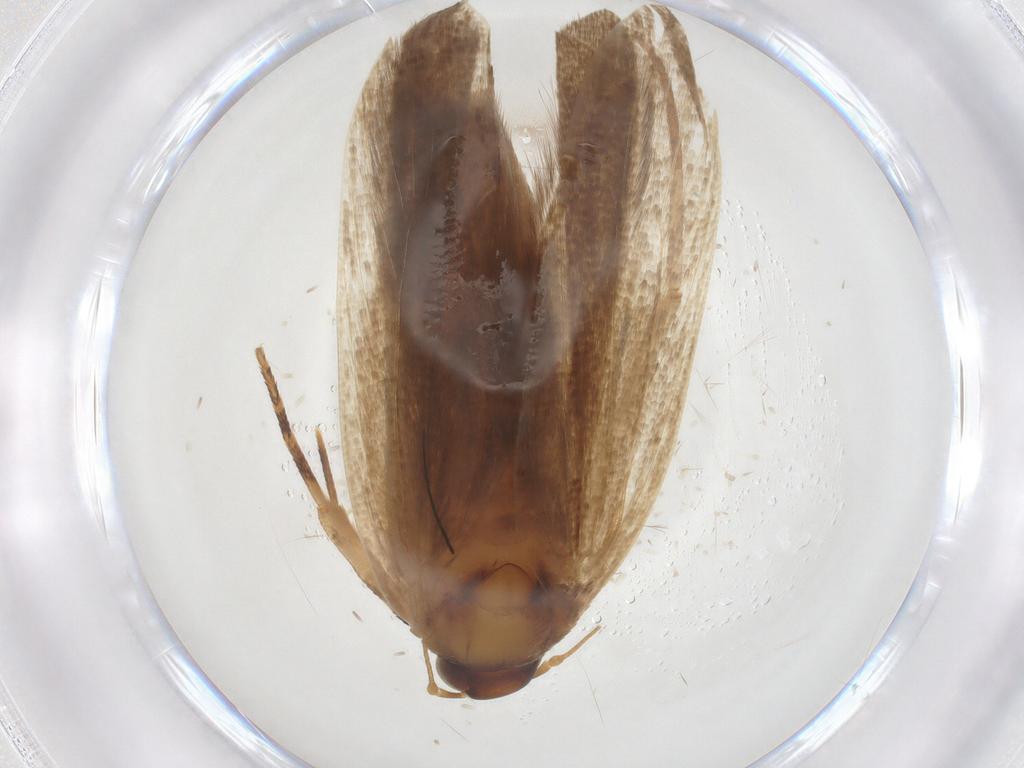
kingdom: Animalia
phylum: Arthropoda
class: Insecta
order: Lepidoptera
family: Gelechiidae
